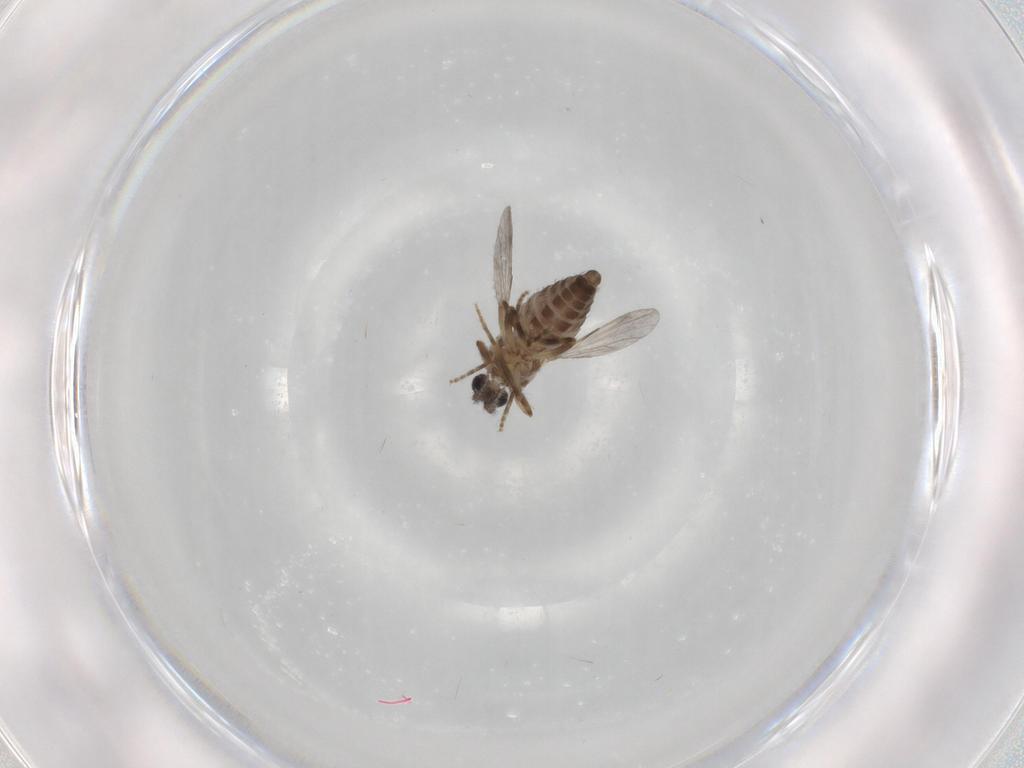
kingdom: Animalia
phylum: Arthropoda
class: Insecta
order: Diptera
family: Ceratopogonidae
